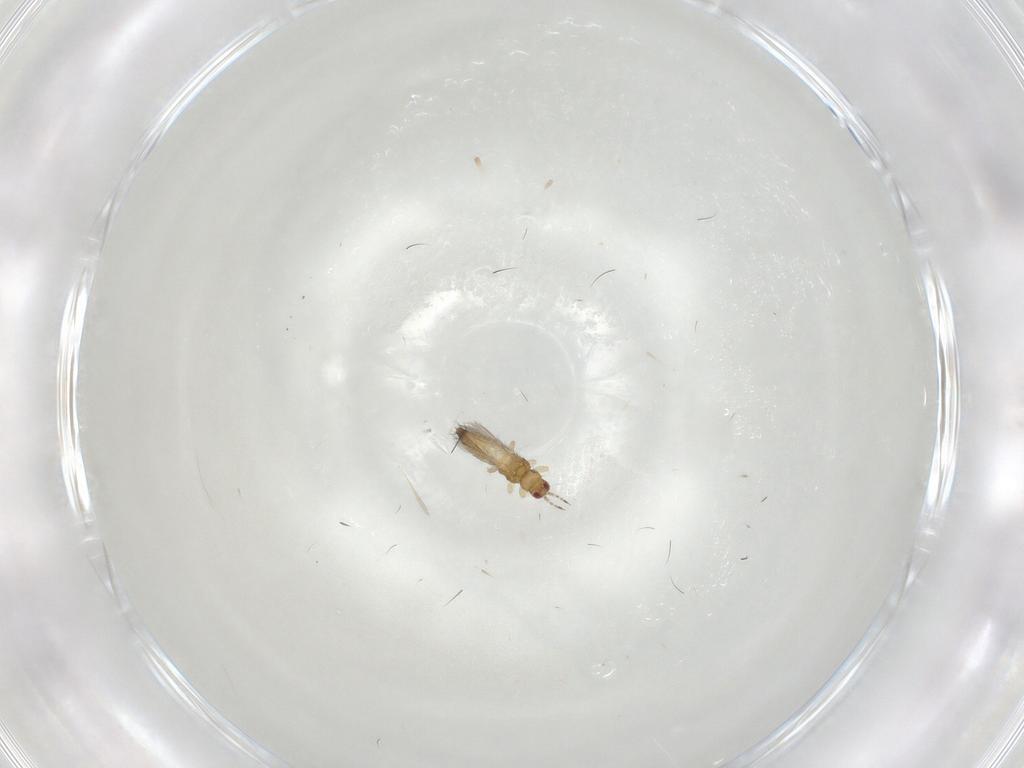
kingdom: Animalia
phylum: Arthropoda
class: Insecta
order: Thysanoptera
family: Thripidae
